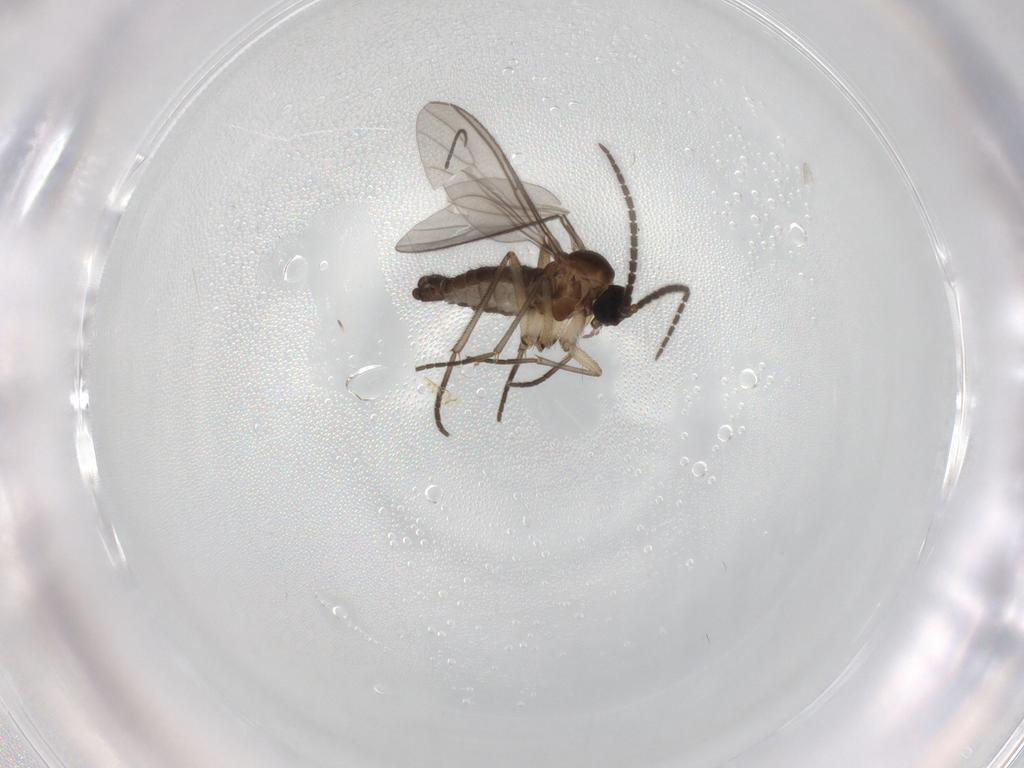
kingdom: Animalia
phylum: Arthropoda
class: Insecta
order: Diptera
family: Sciaridae
